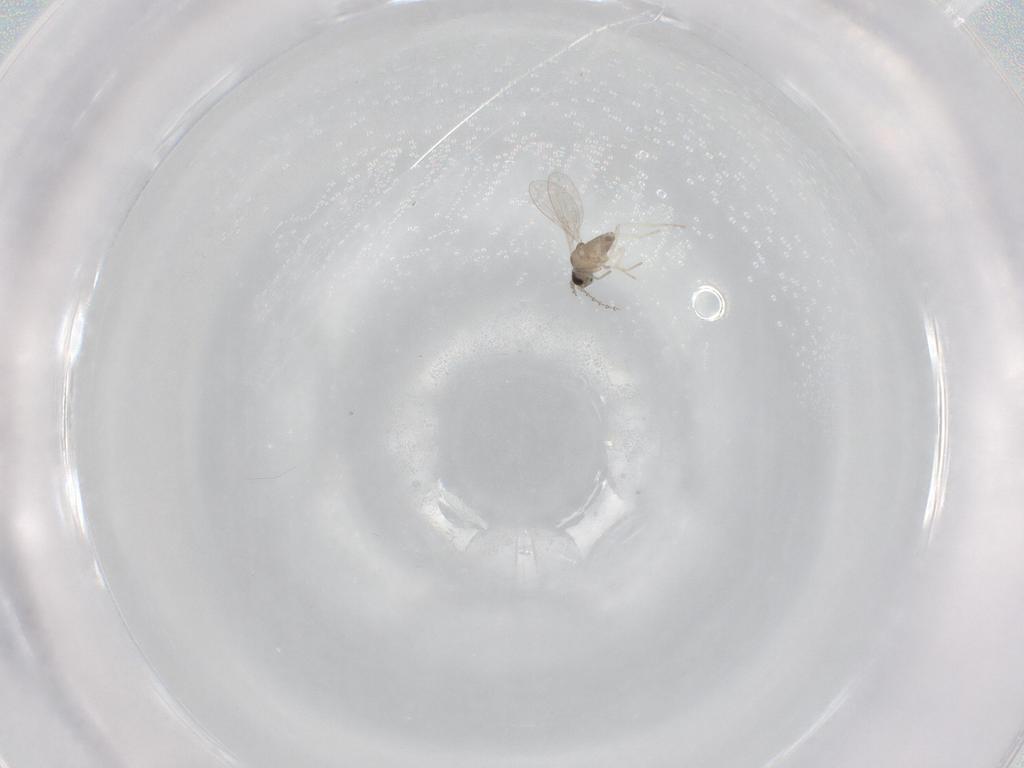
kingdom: Animalia
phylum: Arthropoda
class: Insecta
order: Diptera
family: Cecidomyiidae
